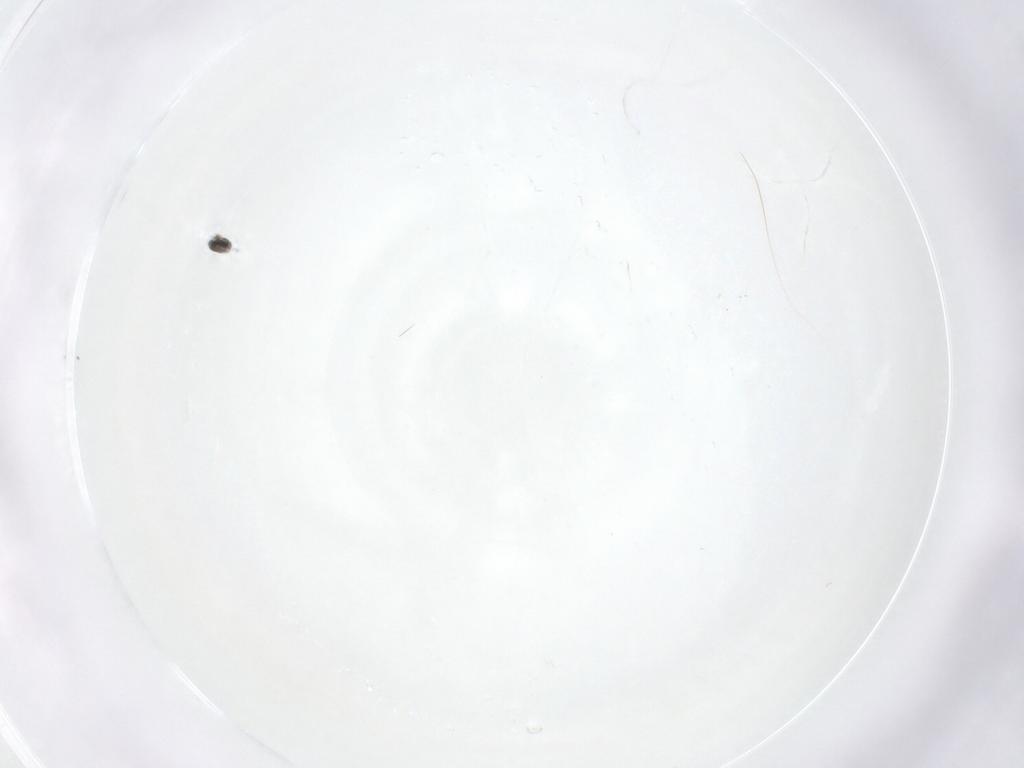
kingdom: Animalia
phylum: Arthropoda
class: Insecta
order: Diptera
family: Cecidomyiidae
